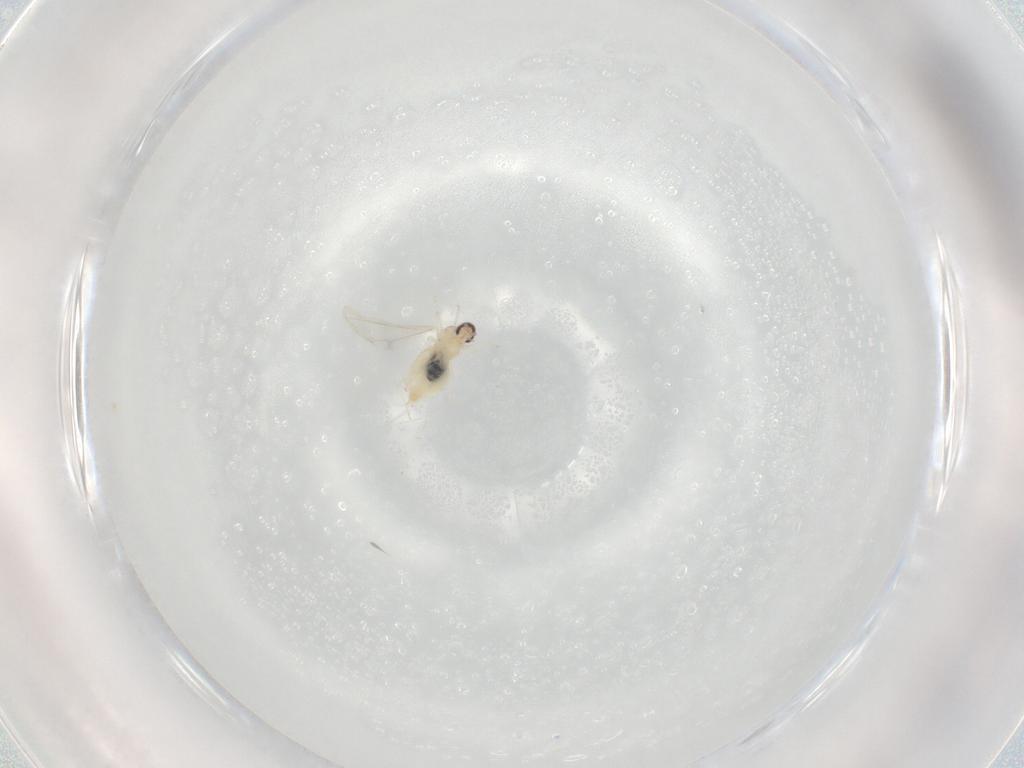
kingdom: Animalia
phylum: Arthropoda
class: Insecta
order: Diptera
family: Cecidomyiidae
